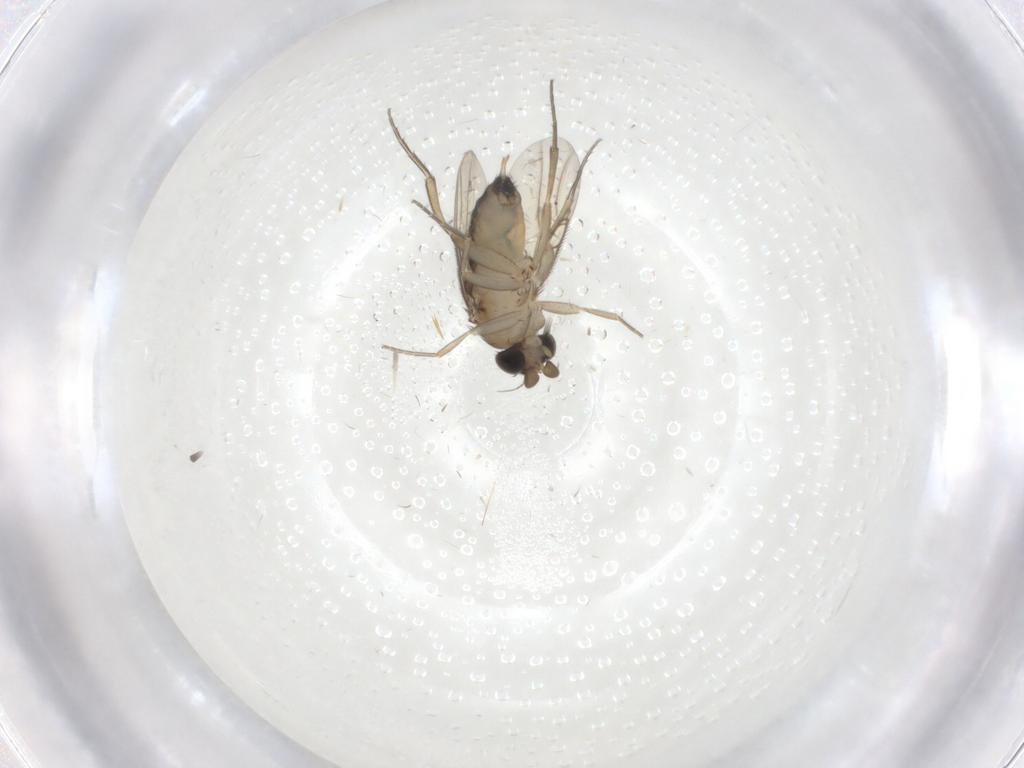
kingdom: Animalia
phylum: Arthropoda
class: Insecta
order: Diptera
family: Phoridae
